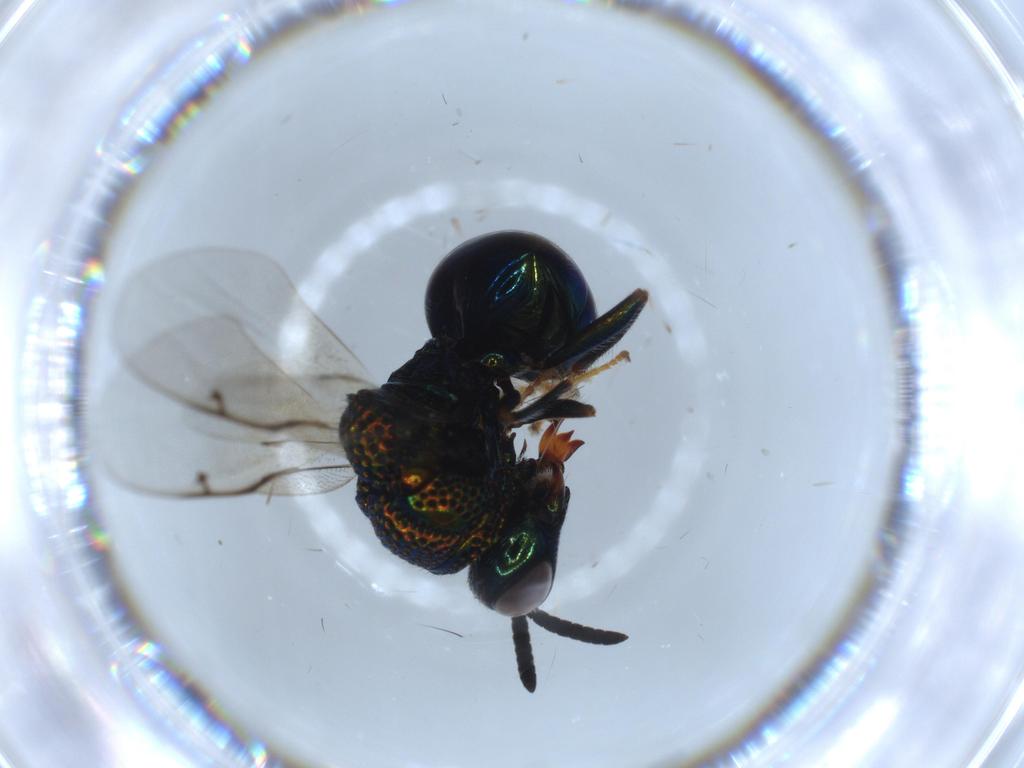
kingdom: Animalia
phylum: Arthropoda
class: Insecta
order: Hymenoptera
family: Perilampidae
